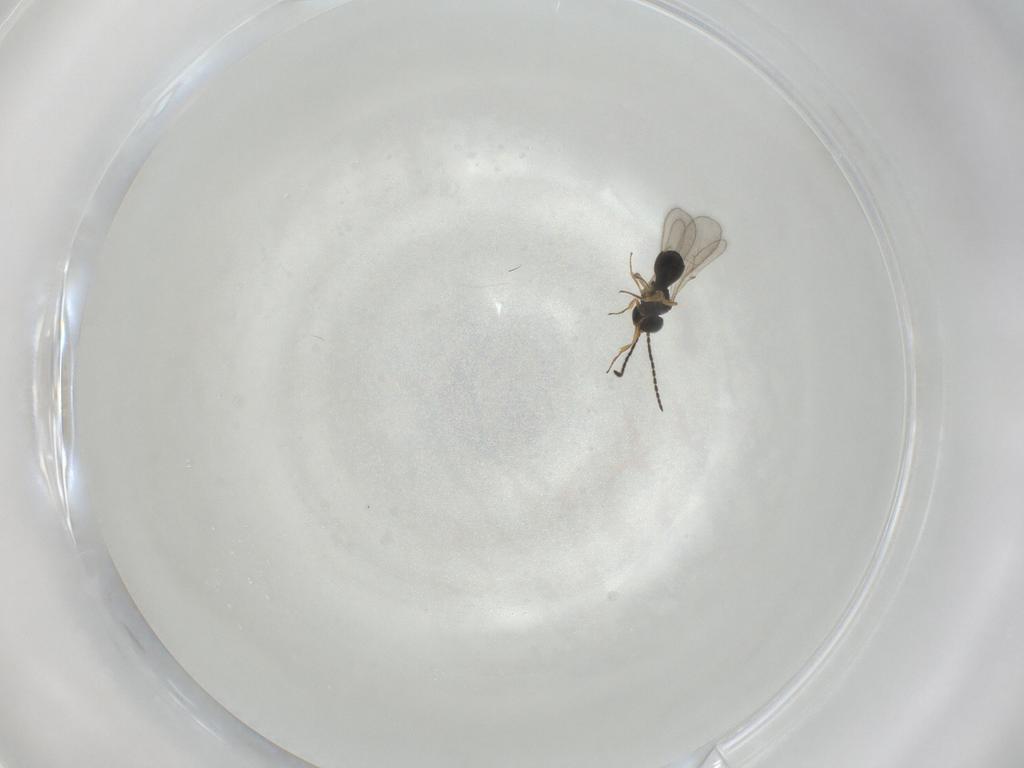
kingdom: Animalia
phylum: Arthropoda
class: Insecta
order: Hymenoptera
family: Scelionidae
